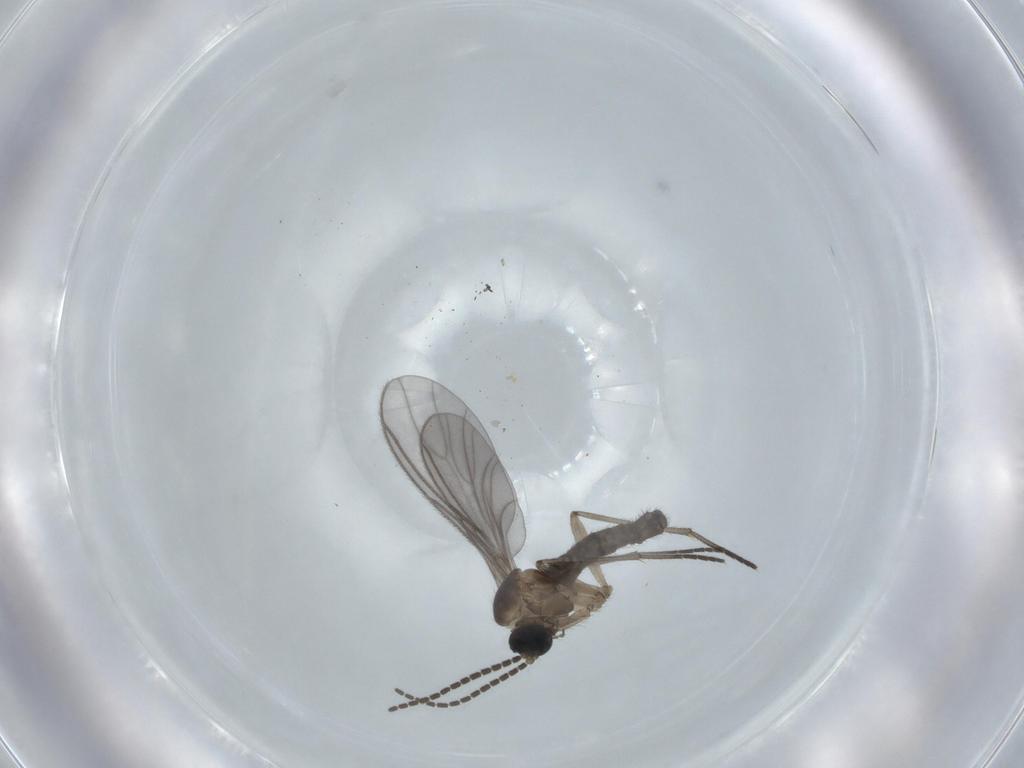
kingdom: Animalia
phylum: Arthropoda
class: Insecta
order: Diptera
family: Sciaridae
